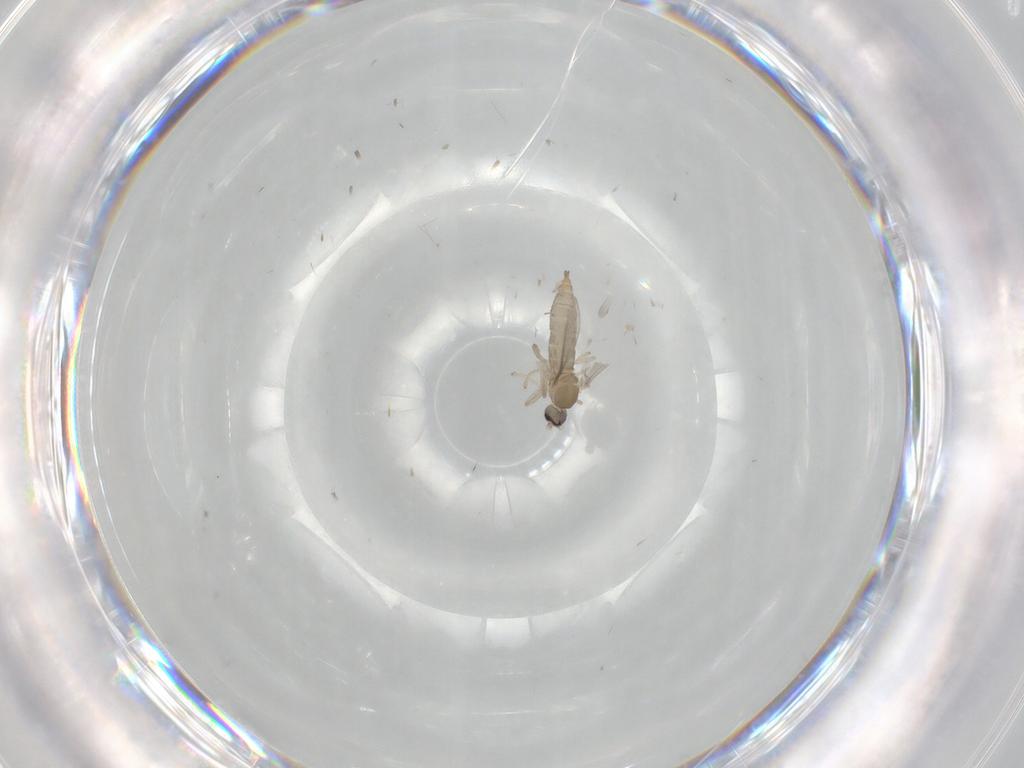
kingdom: Animalia
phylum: Arthropoda
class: Insecta
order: Diptera
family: Cecidomyiidae
